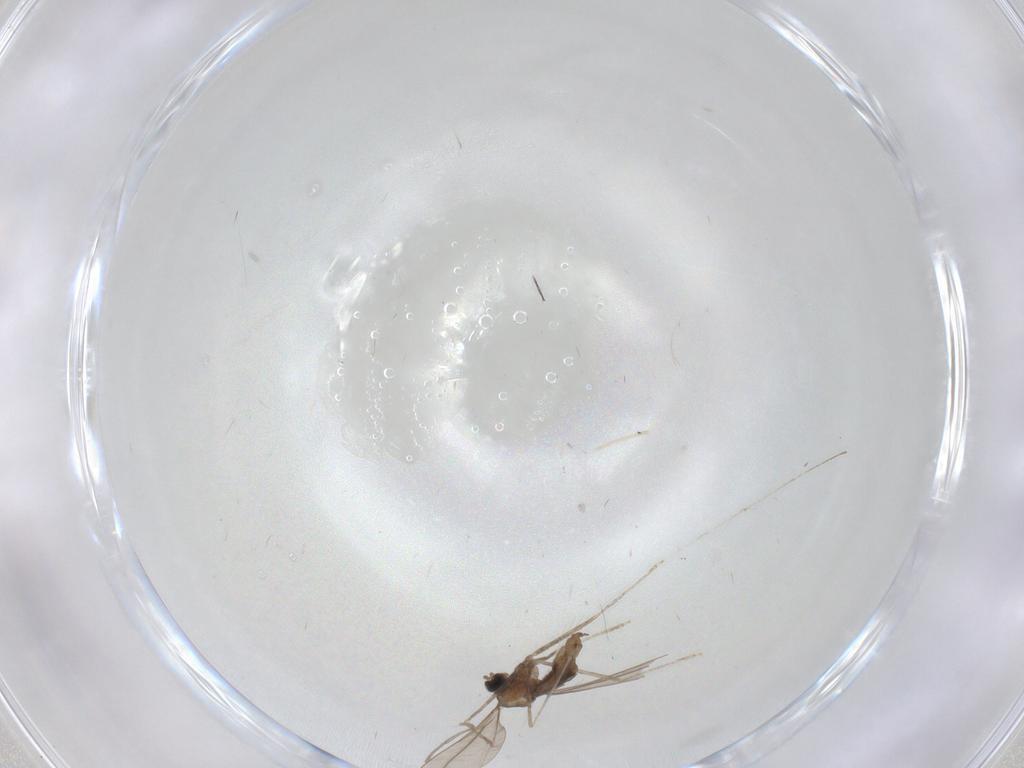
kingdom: Animalia
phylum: Arthropoda
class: Insecta
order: Diptera
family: Cecidomyiidae
